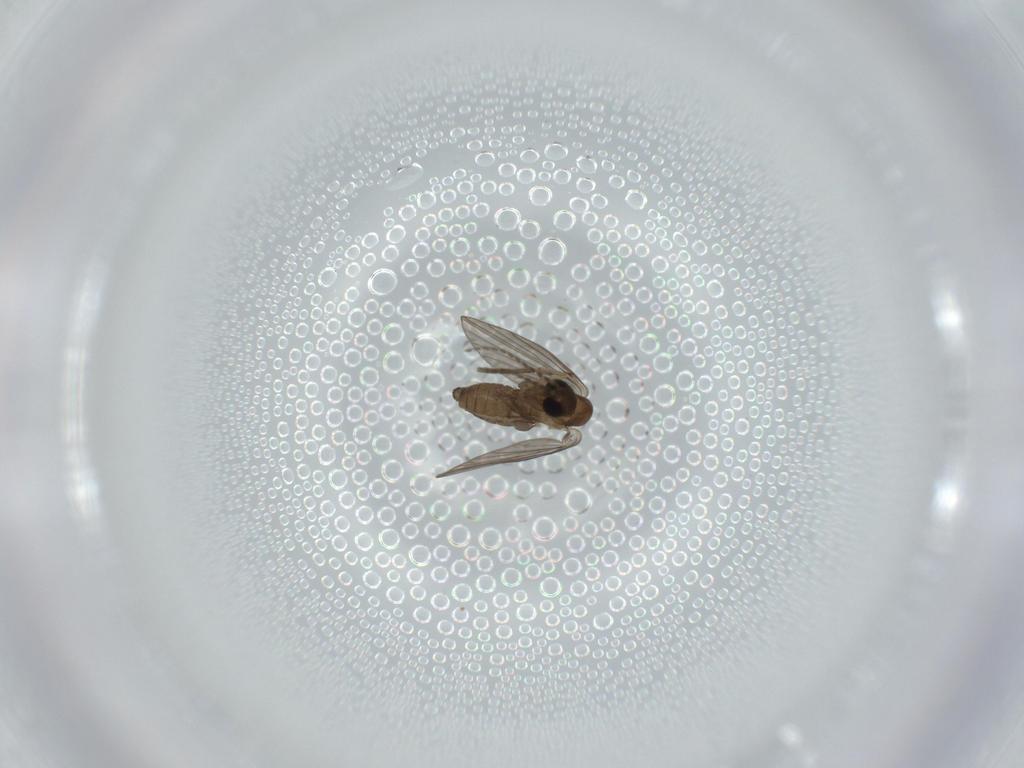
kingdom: Animalia
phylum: Arthropoda
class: Insecta
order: Diptera
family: Psychodidae
